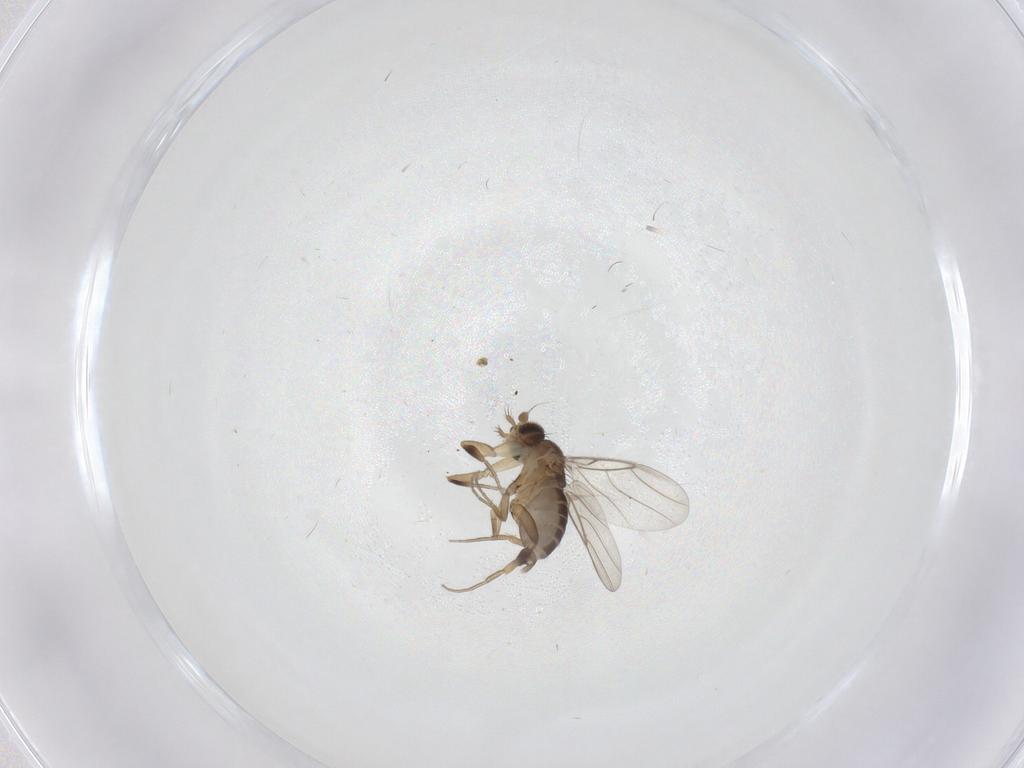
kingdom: Animalia
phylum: Arthropoda
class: Insecta
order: Diptera
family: Phoridae
